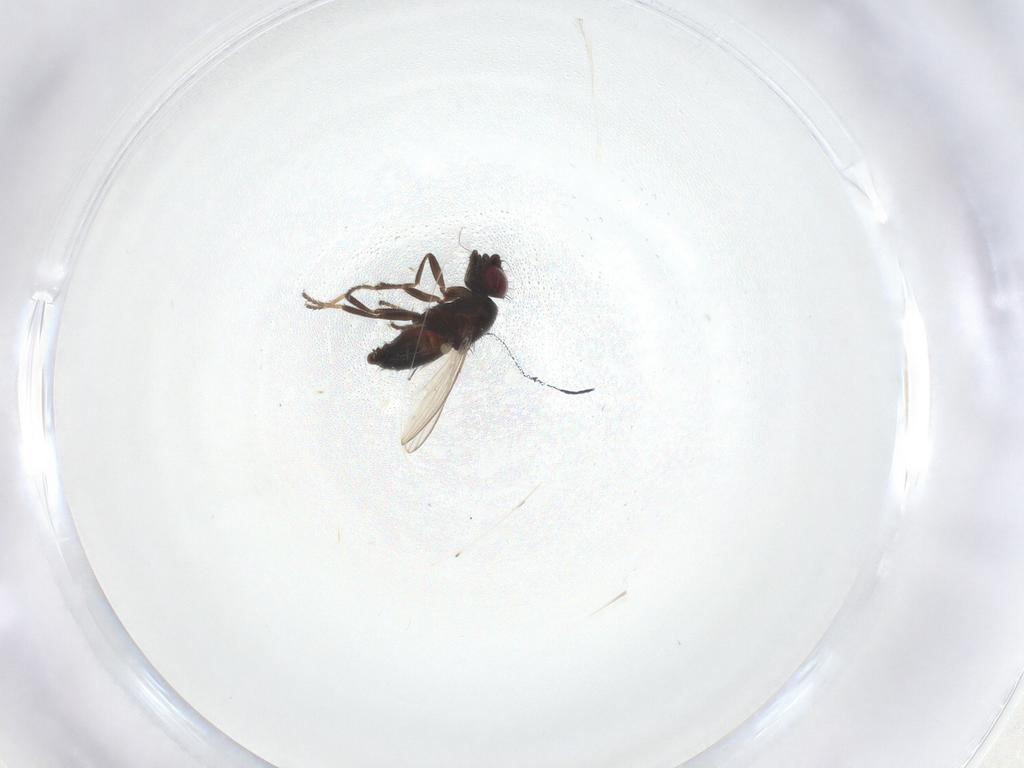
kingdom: Animalia
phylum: Arthropoda
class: Insecta
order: Diptera
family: Milichiidae
